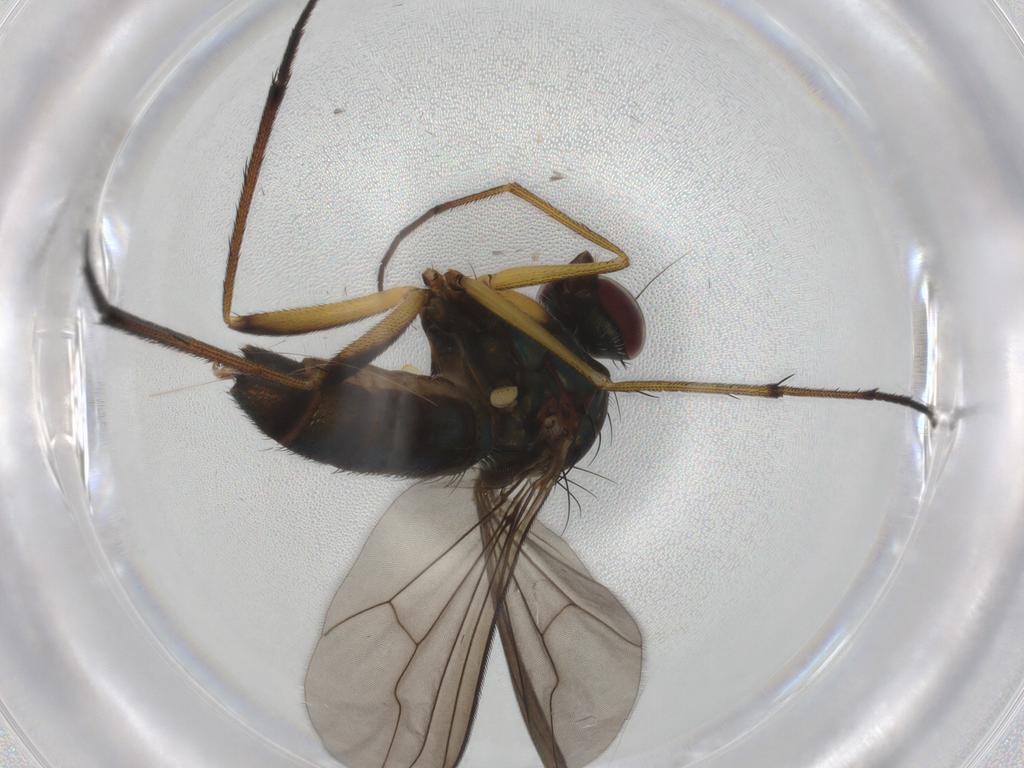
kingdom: Animalia
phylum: Arthropoda
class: Insecta
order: Diptera
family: Dolichopodidae
